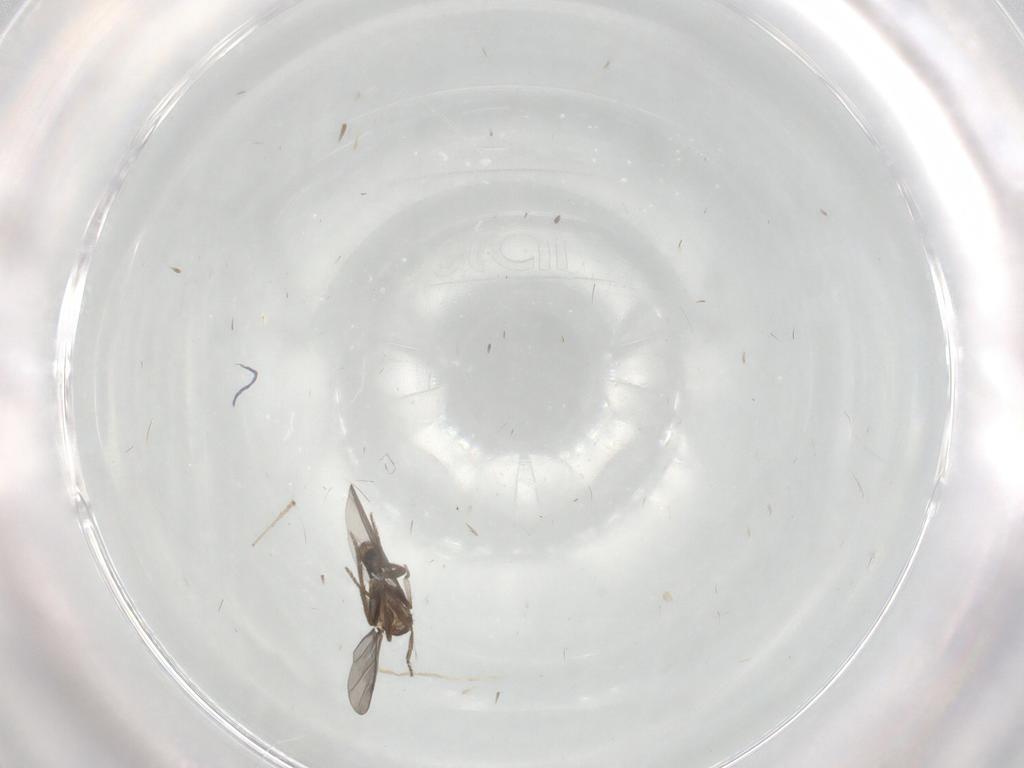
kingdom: Animalia
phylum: Arthropoda
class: Insecta
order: Diptera
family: Phoridae
